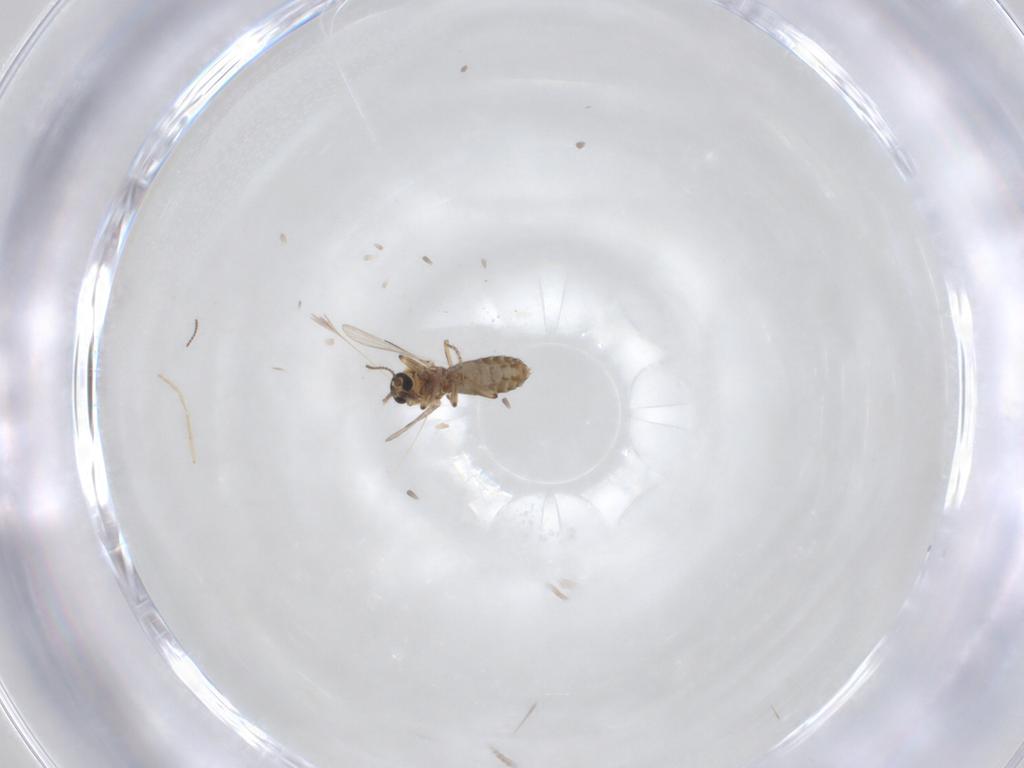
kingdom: Animalia
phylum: Arthropoda
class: Insecta
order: Diptera
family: Ceratopogonidae
